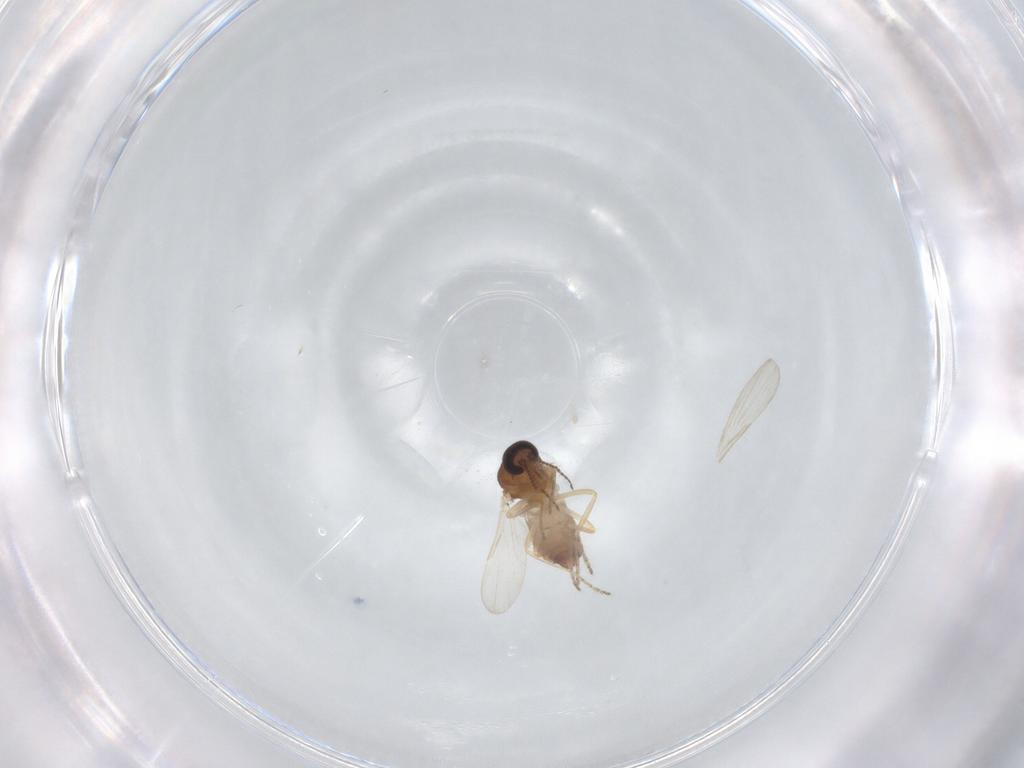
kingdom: Animalia
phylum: Arthropoda
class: Insecta
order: Diptera
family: Ceratopogonidae
